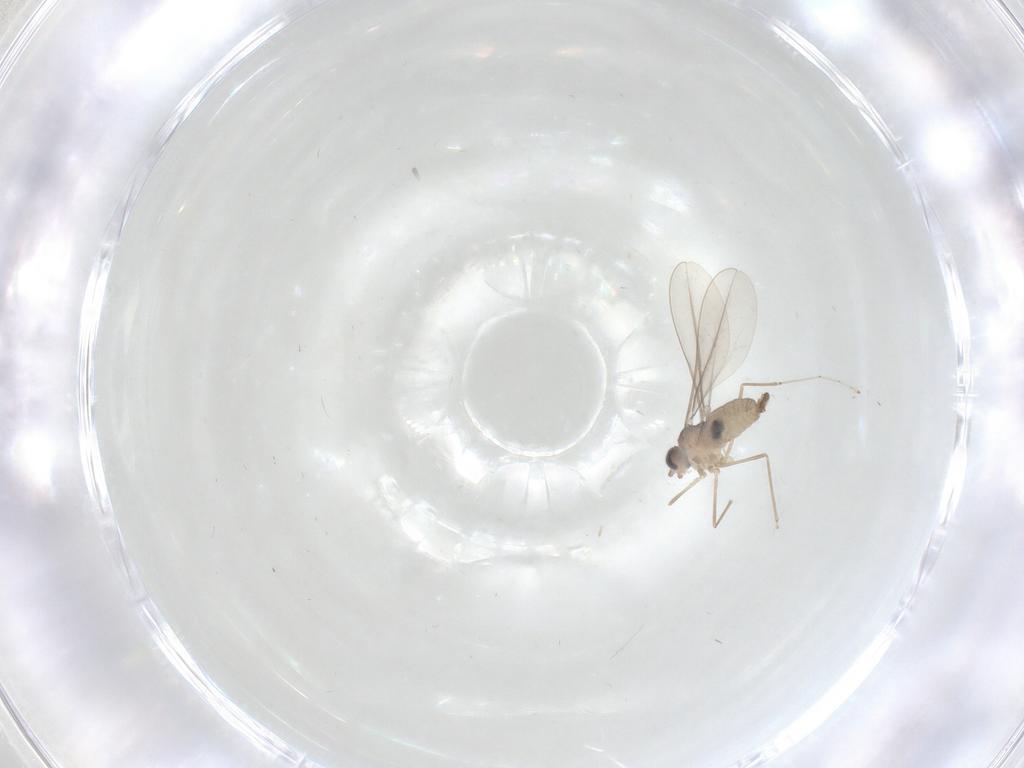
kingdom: Animalia
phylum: Arthropoda
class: Insecta
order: Diptera
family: Cecidomyiidae
